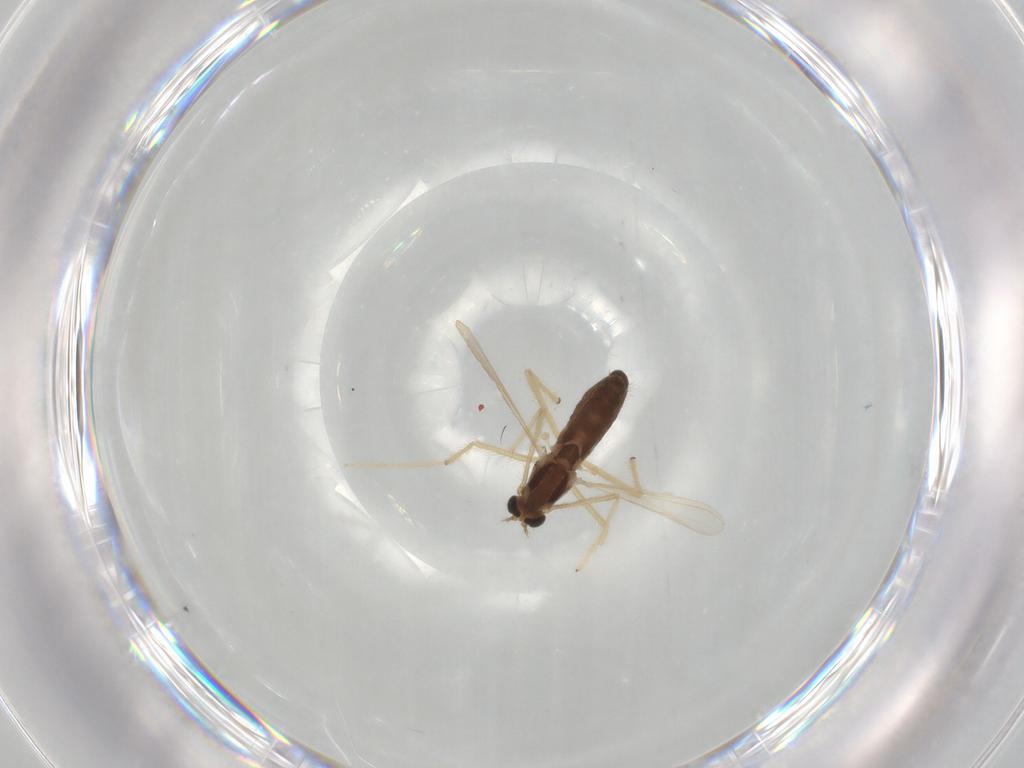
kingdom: Animalia
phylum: Arthropoda
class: Insecta
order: Diptera
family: Chironomidae
